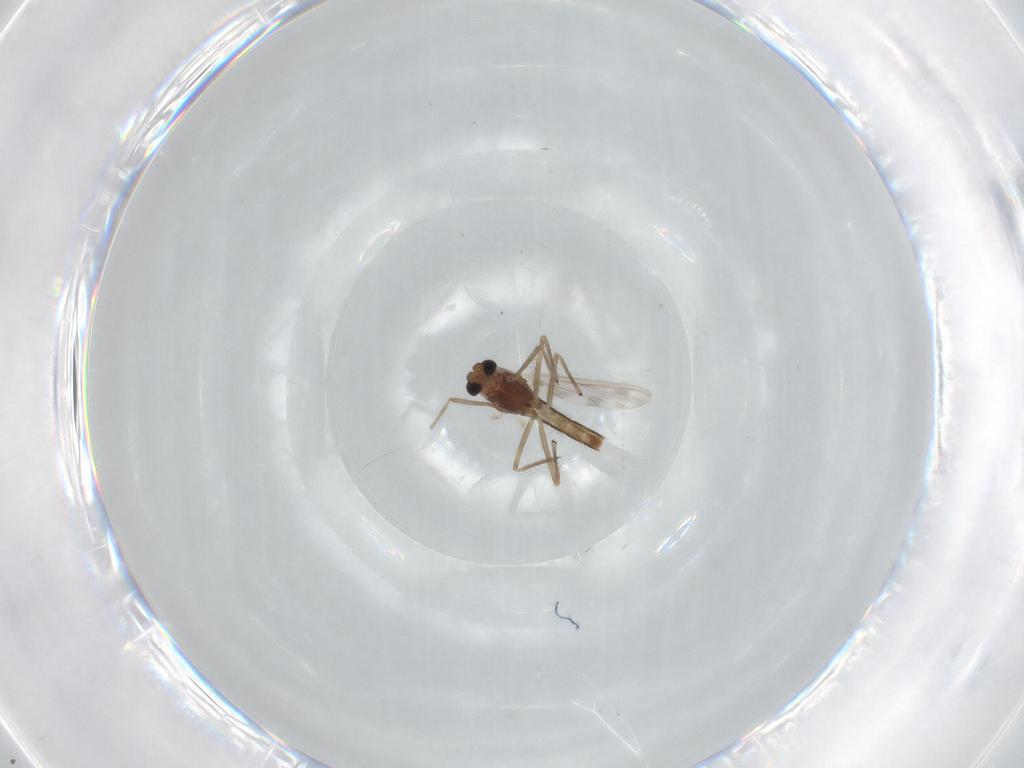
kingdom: Animalia
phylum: Arthropoda
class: Insecta
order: Diptera
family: Chironomidae
